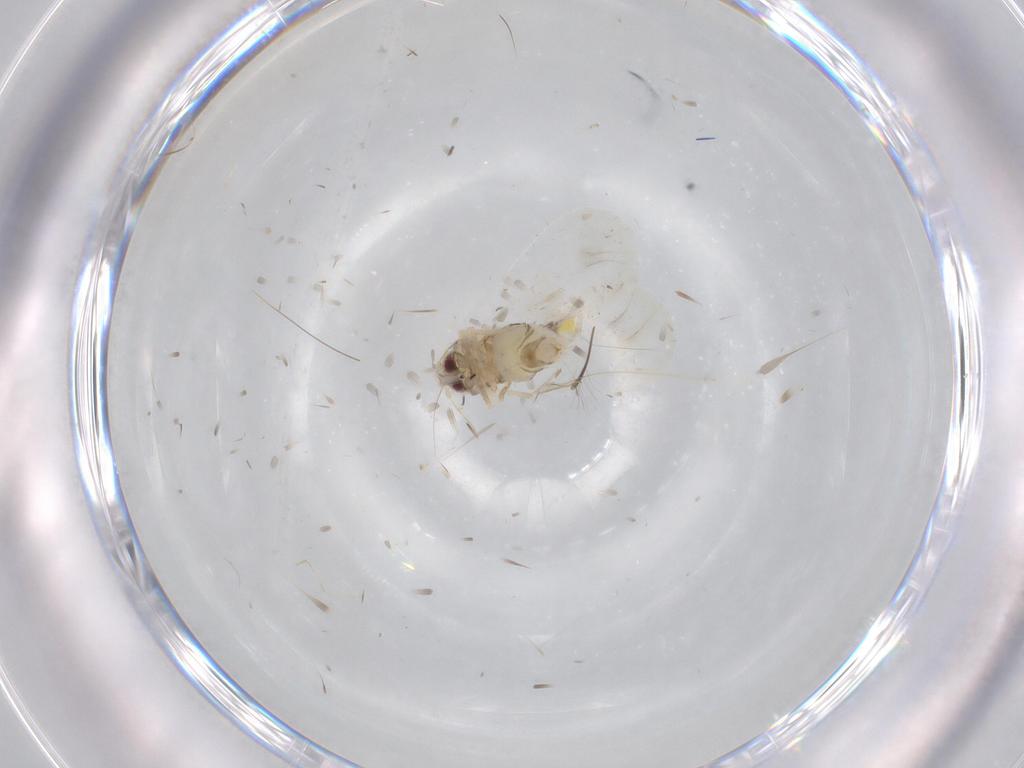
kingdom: Animalia
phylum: Arthropoda
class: Insecta
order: Hemiptera
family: Aleyrodidae
